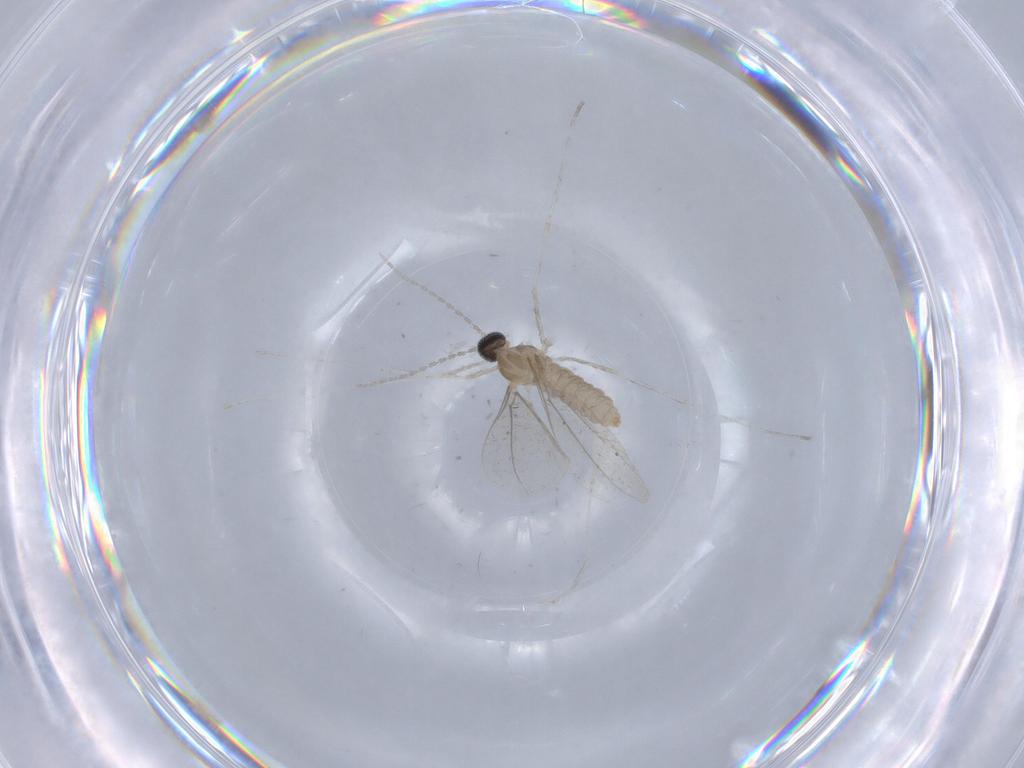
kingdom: Animalia
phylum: Arthropoda
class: Insecta
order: Diptera
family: Cecidomyiidae
